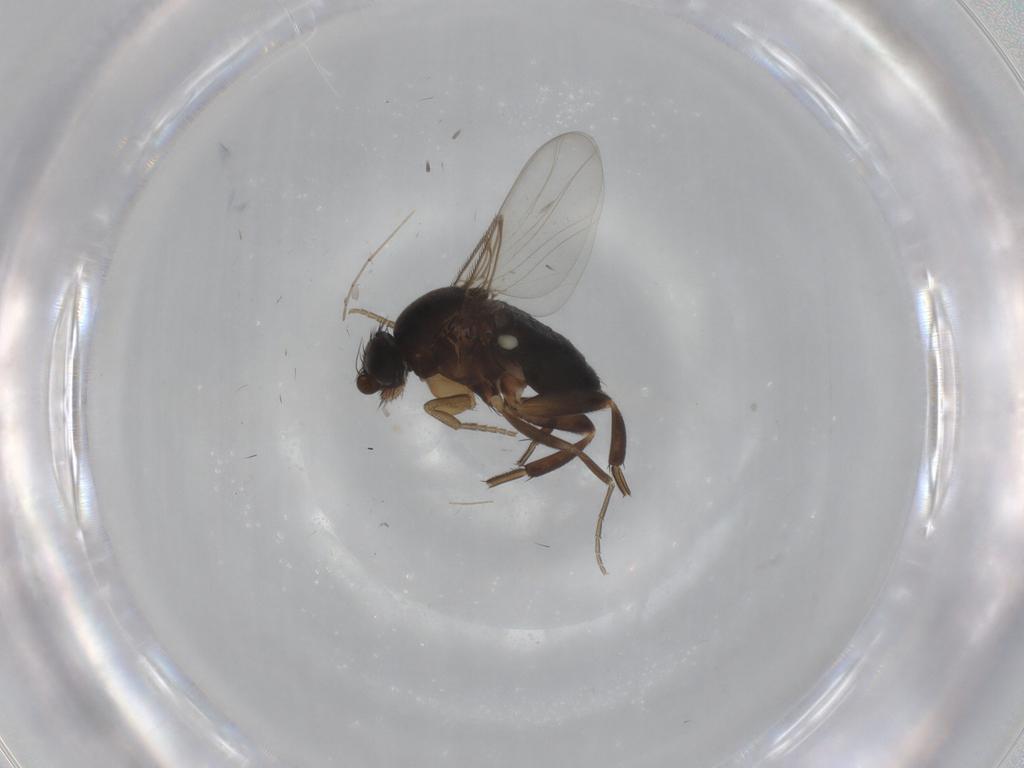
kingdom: Animalia
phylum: Arthropoda
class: Insecta
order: Diptera
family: Phoridae
